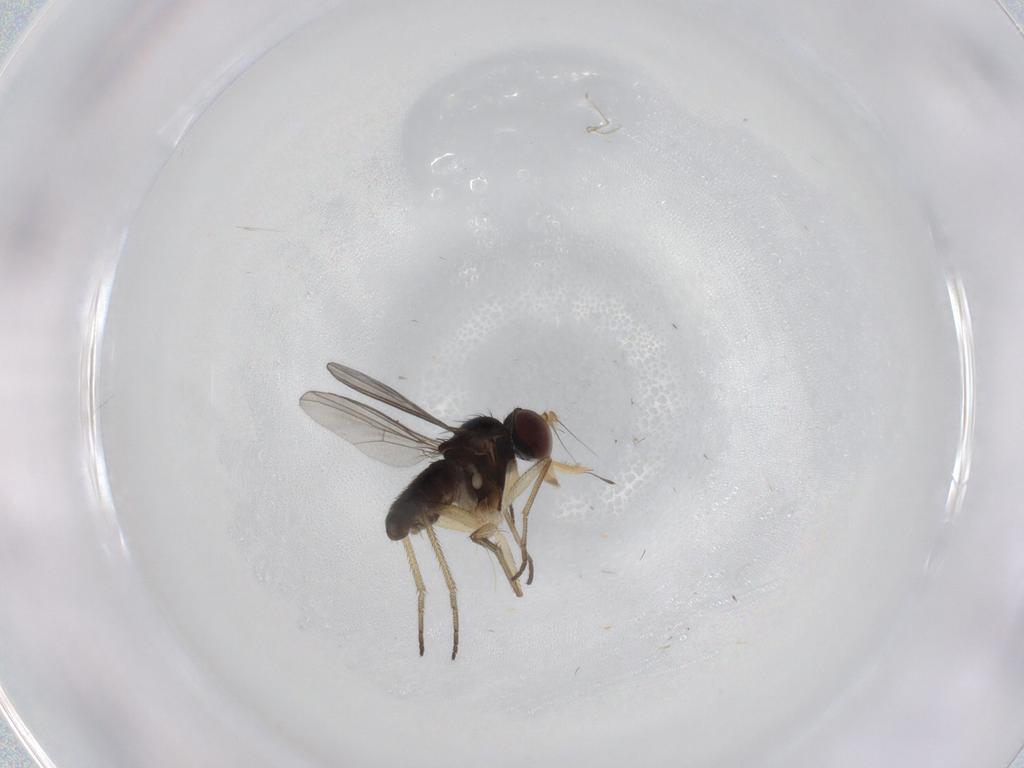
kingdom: Animalia
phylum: Arthropoda
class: Insecta
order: Diptera
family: Dolichopodidae
